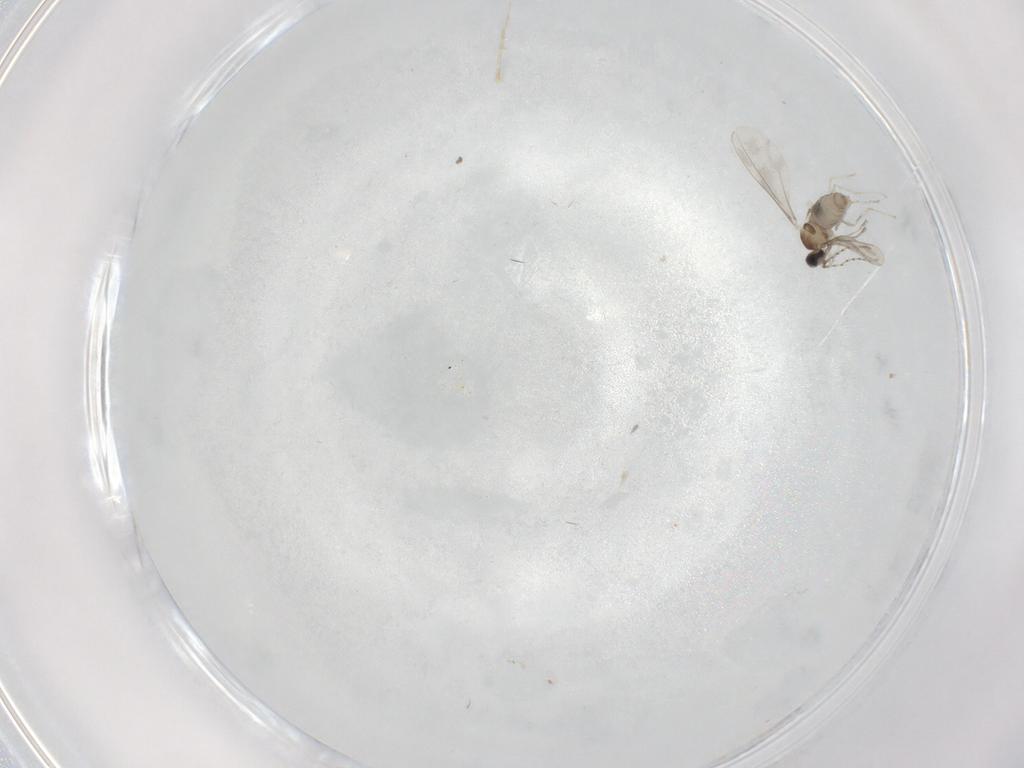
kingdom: Animalia
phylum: Arthropoda
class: Insecta
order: Diptera
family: Cecidomyiidae
